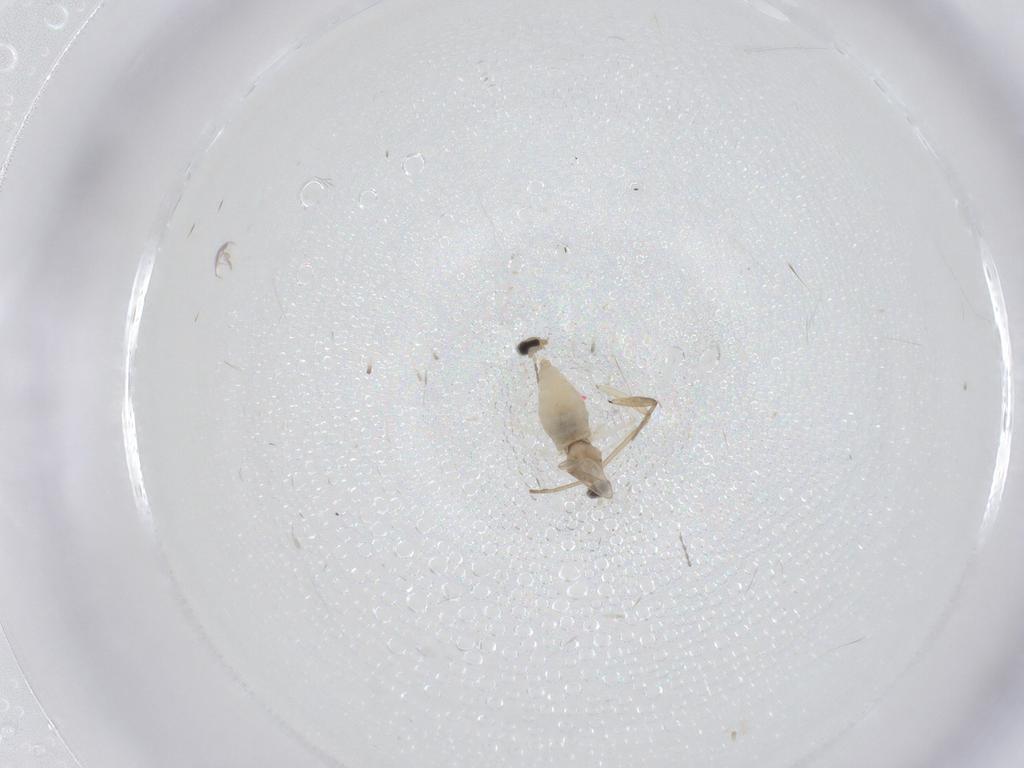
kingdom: Animalia
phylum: Arthropoda
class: Insecta
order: Diptera
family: Cecidomyiidae
